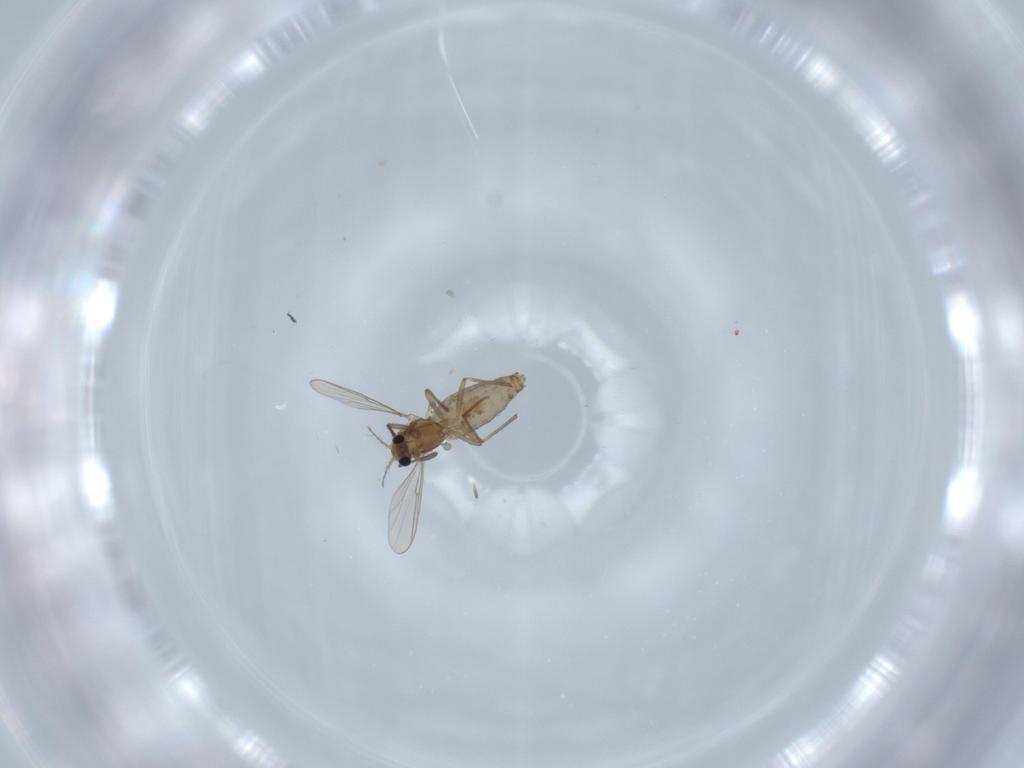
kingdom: Animalia
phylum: Arthropoda
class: Insecta
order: Diptera
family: Chironomidae
